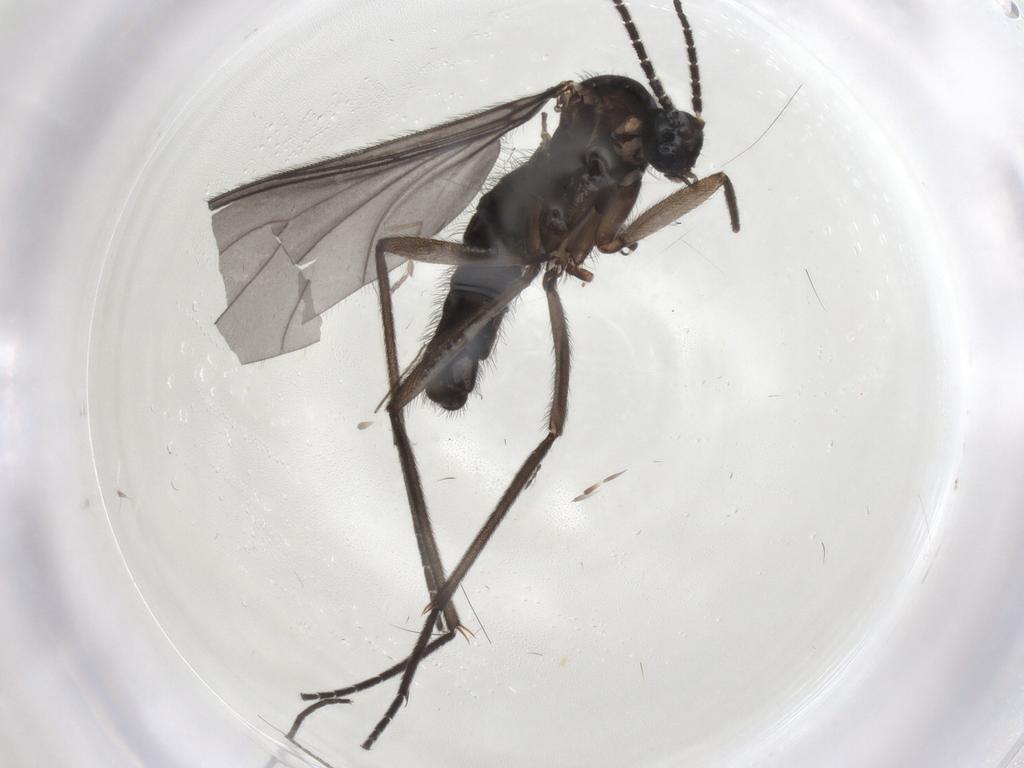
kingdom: Animalia
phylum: Arthropoda
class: Insecta
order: Diptera
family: Sciaridae
